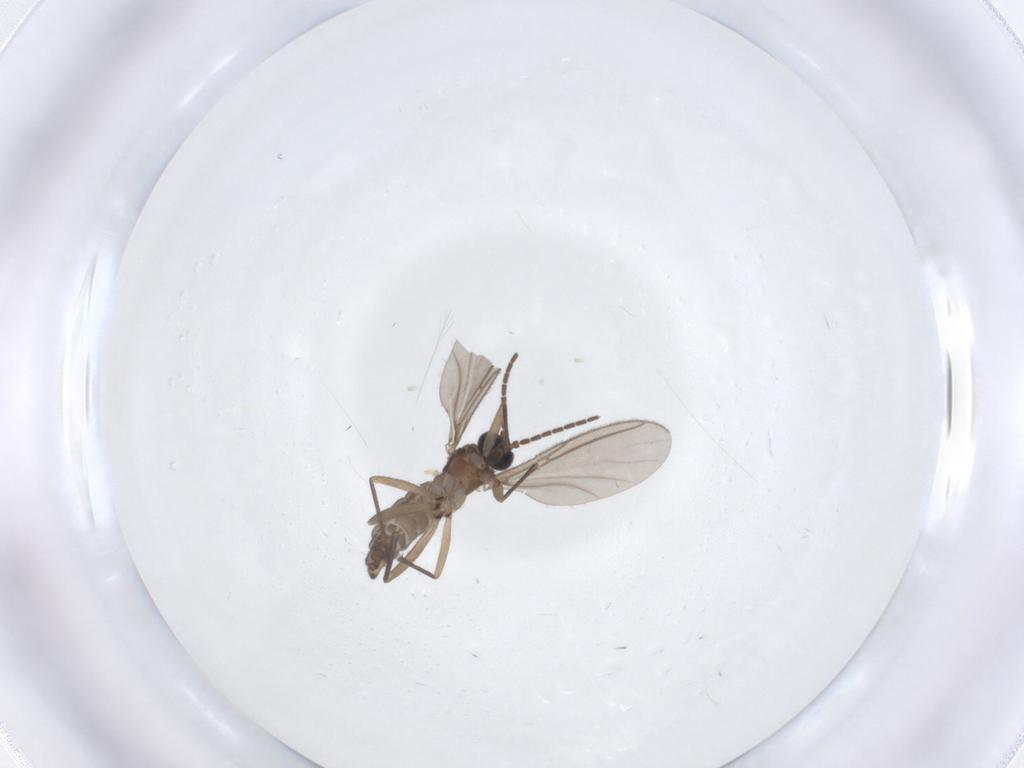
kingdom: Animalia
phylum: Arthropoda
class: Insecta
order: Diptera
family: Sciaridae
